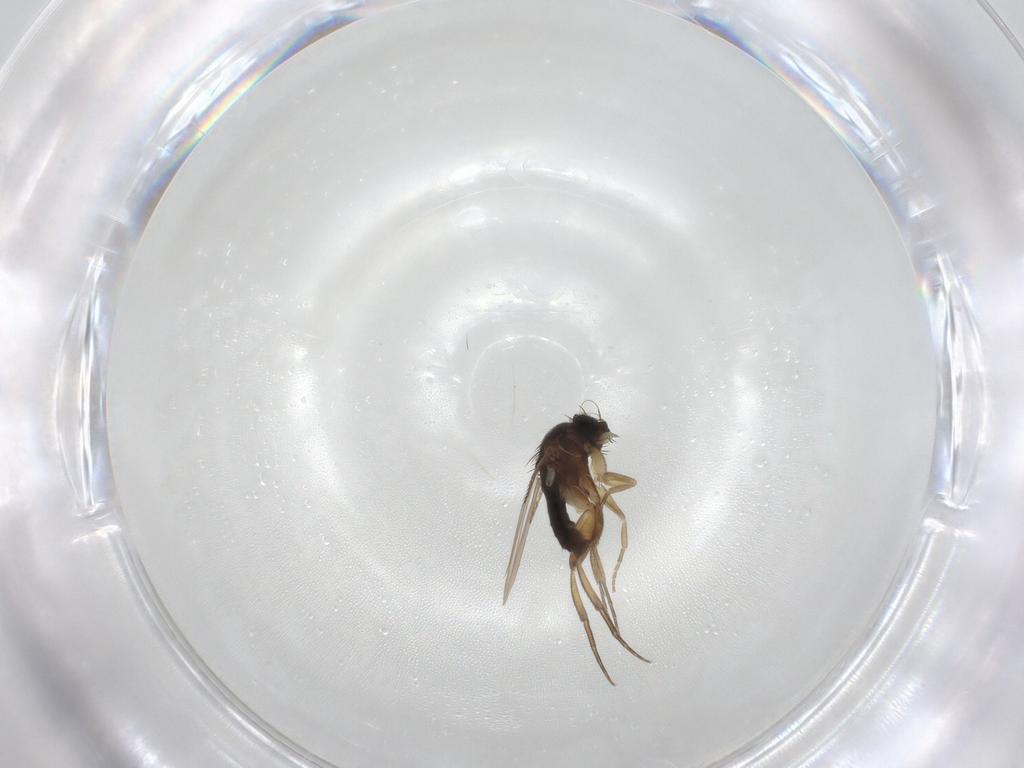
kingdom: Animalia
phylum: Arthropoda
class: Insecta
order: Diptera
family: Phoridae
